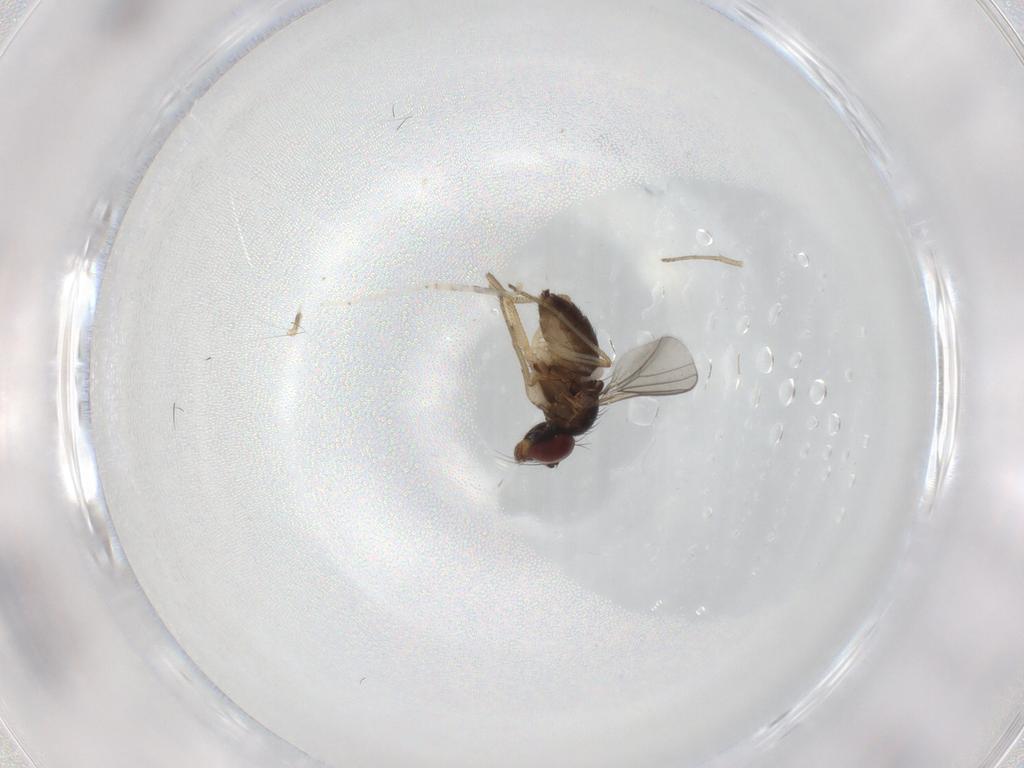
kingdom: Animalia
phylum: Arthropoda
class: Insecta
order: Diptera
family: Dolichopodidae
